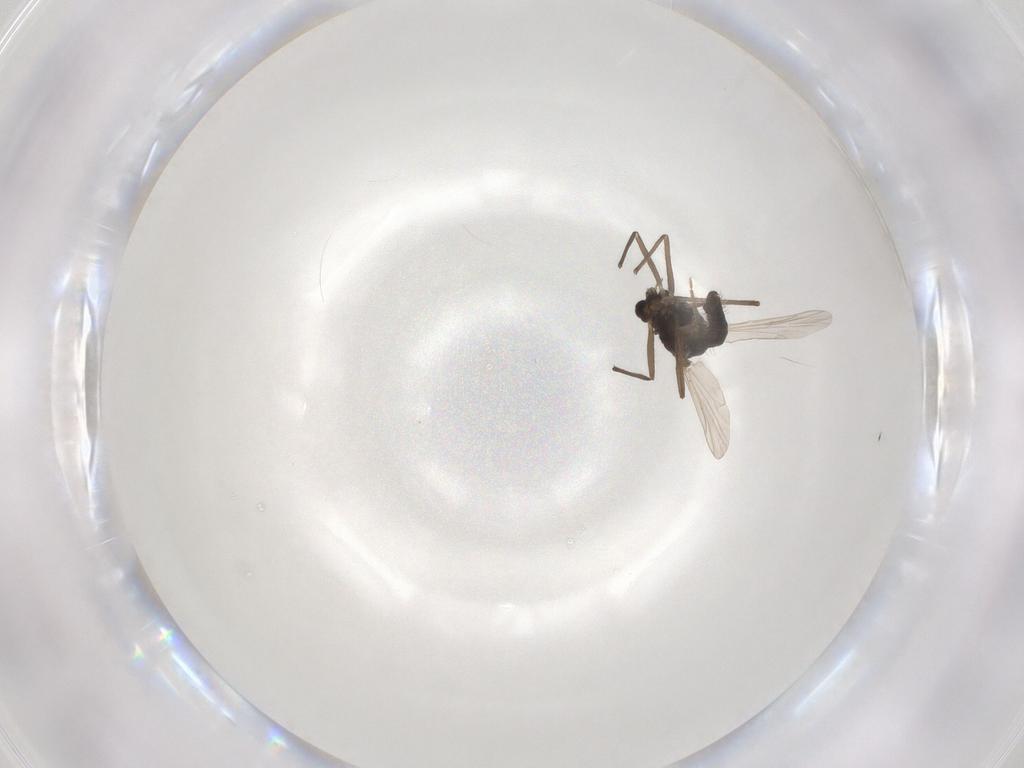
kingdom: Animalia
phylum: Arthropoda
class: Insecta
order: Diptera
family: Chironomidae
